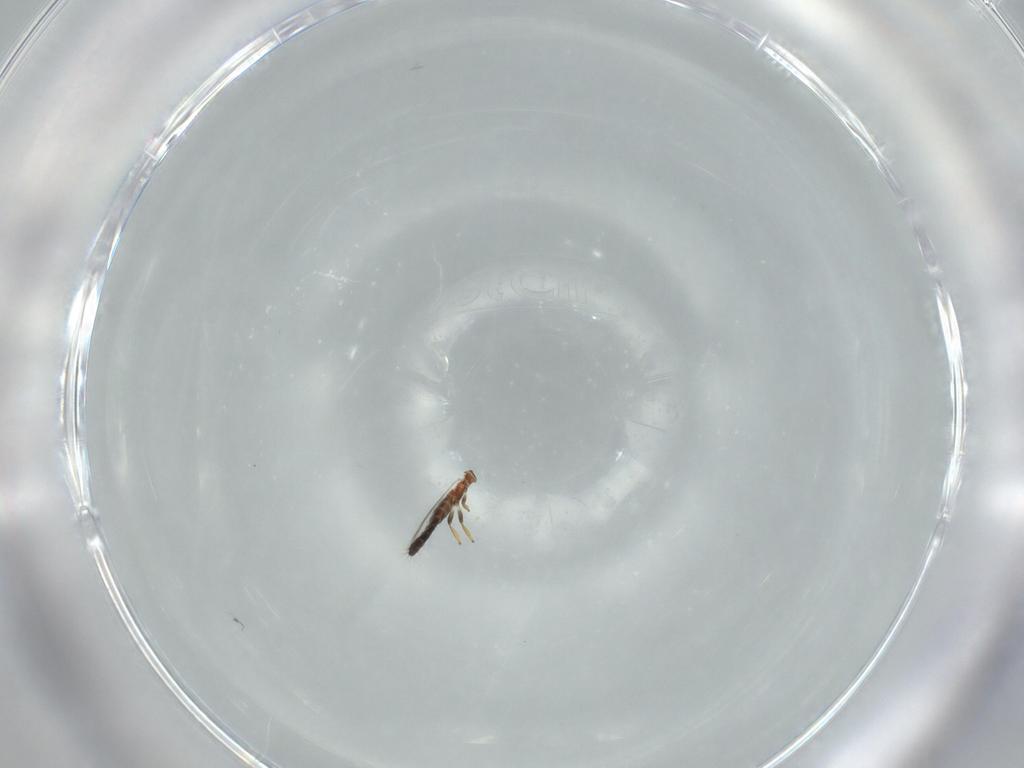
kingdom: Animalia
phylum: Arthropoda
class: Insecta
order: Thysanoptera
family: Thripidae
